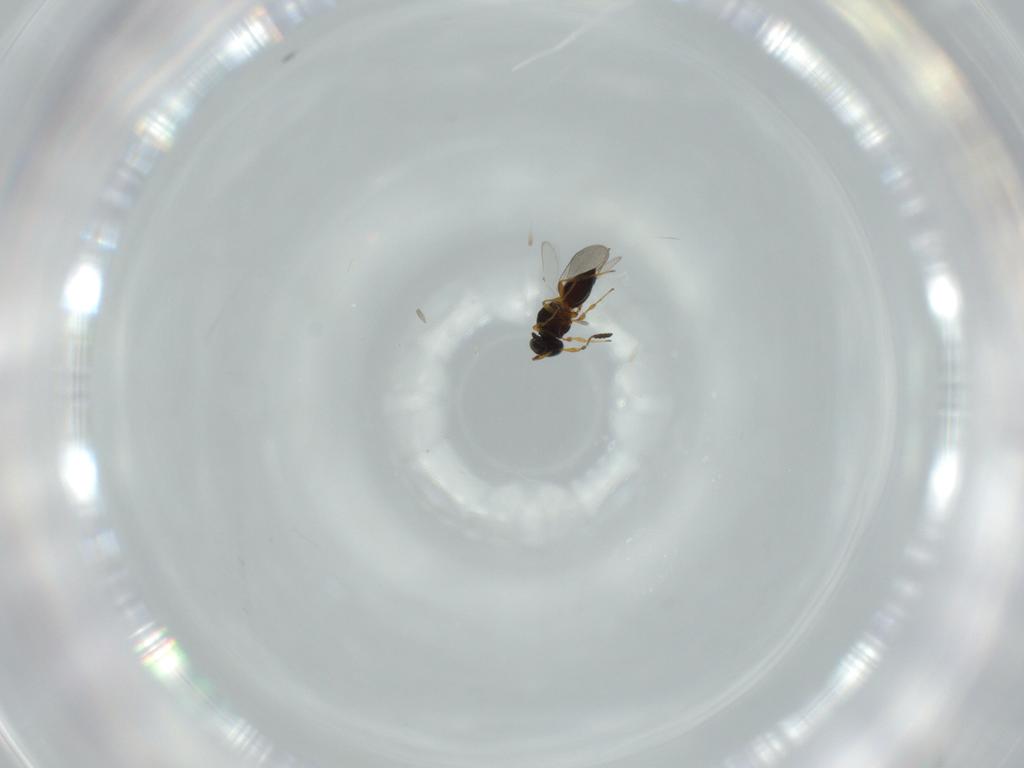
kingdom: Animalia
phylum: Arthropoda
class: Insecta
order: Hymenoptera
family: Platygastridae
